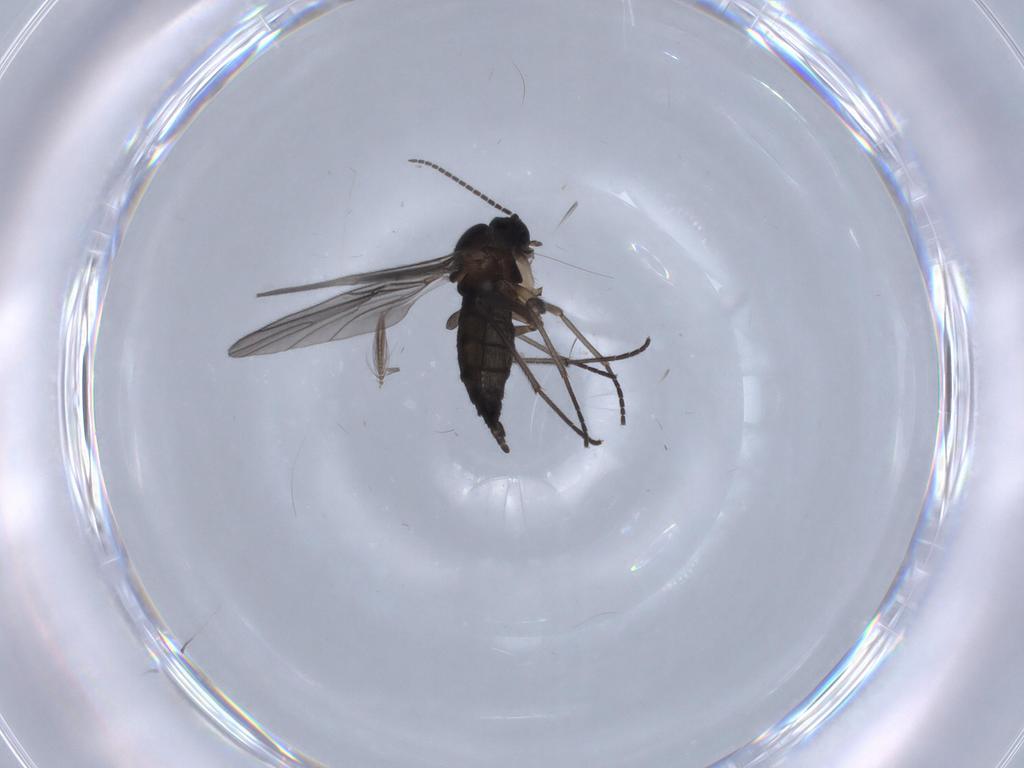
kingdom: Animalia
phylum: Arthropoda
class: Insecta
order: Diptera
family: Sciaridae
